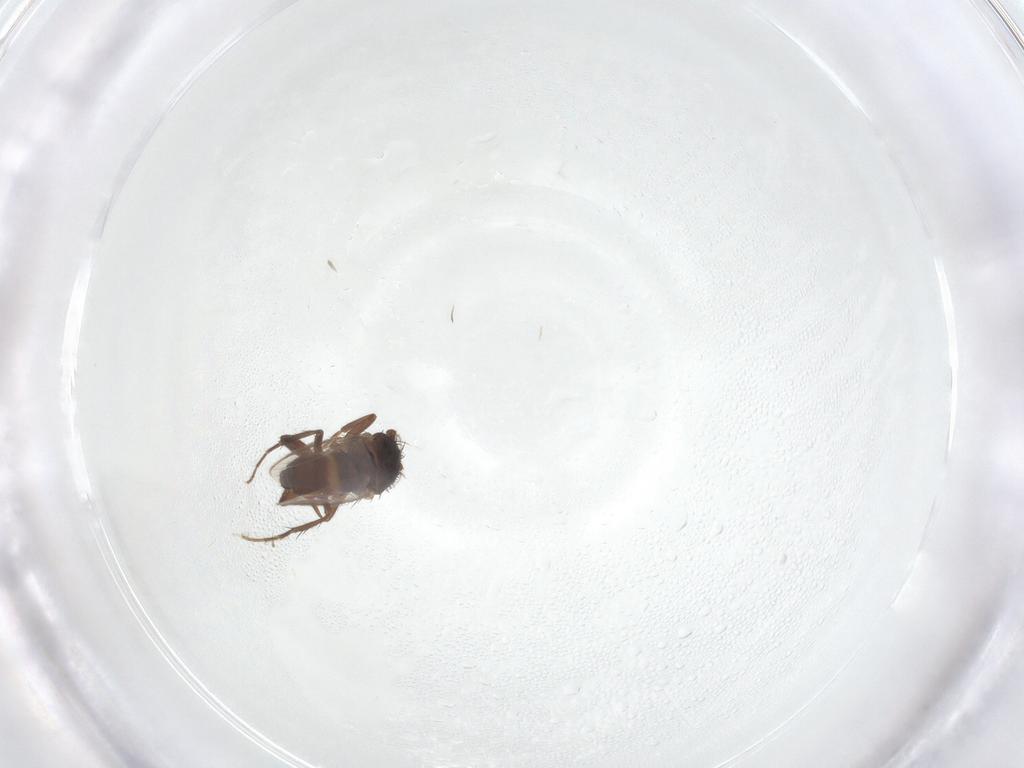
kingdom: Animalia
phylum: Arthropoda
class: Insecta
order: Diptera
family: Sphaeroceridae
